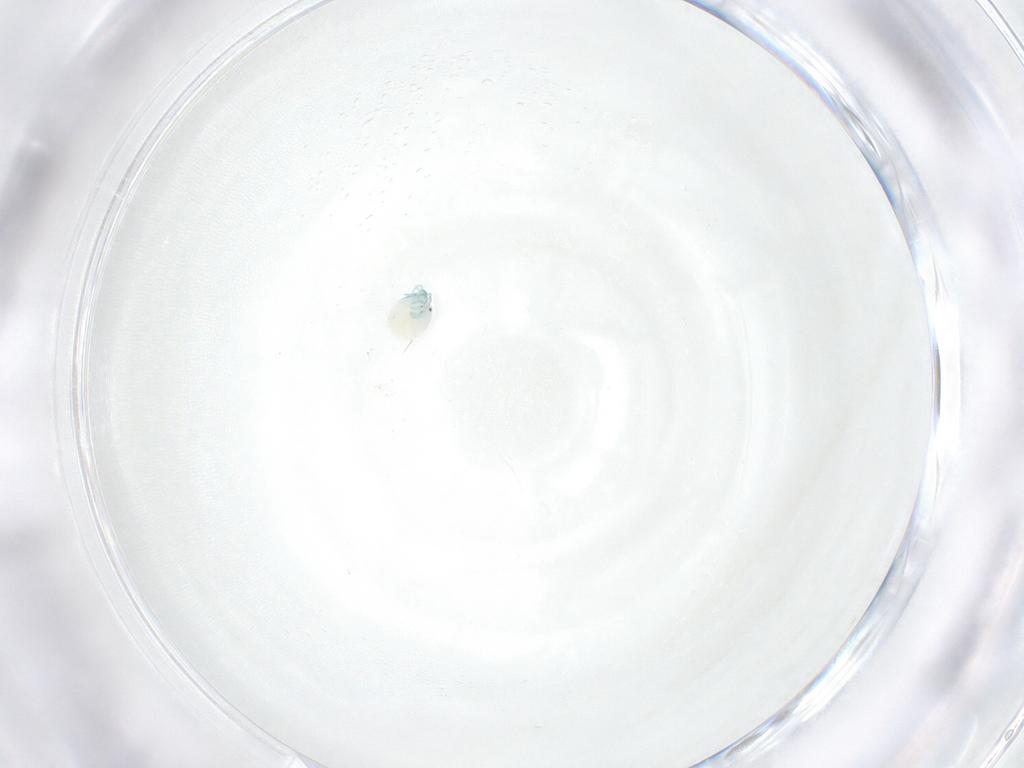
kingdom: Animalia
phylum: Arthropoda
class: Arachnida
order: Trombidiformes
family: Arrenuridae
